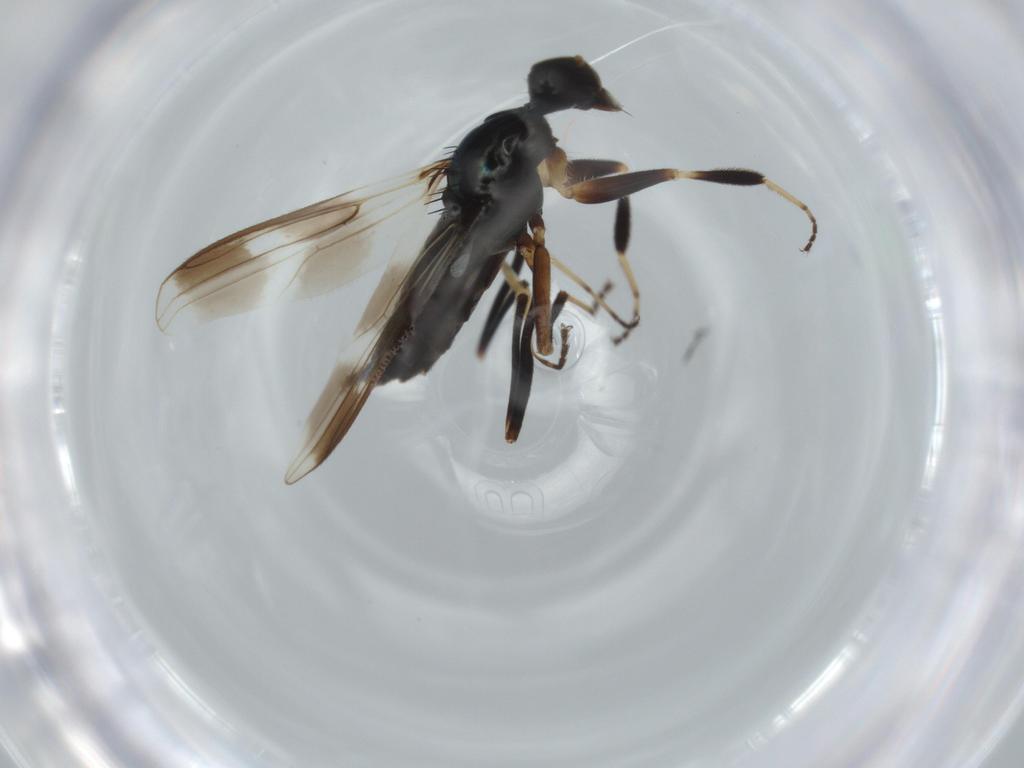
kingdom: Animalia
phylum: Arthropoda
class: Insecta
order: Diptera
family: Hybotidae
